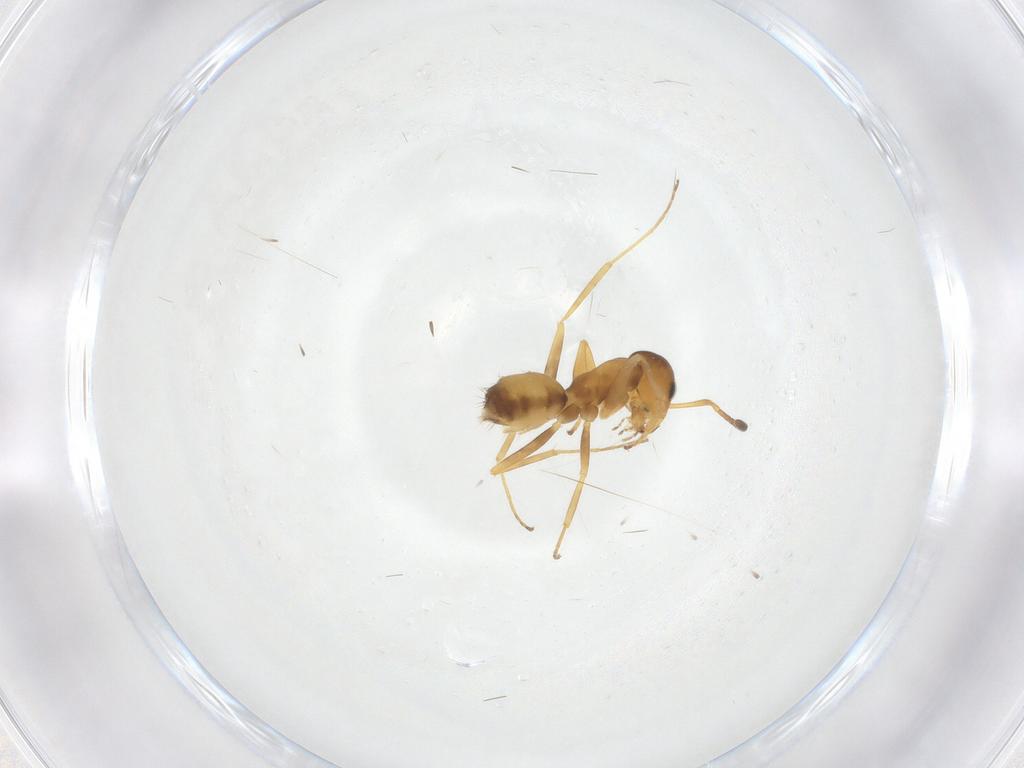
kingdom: Animalia
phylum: Arthropoda
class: Insecta
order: Hymenoptera
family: Formicidae
